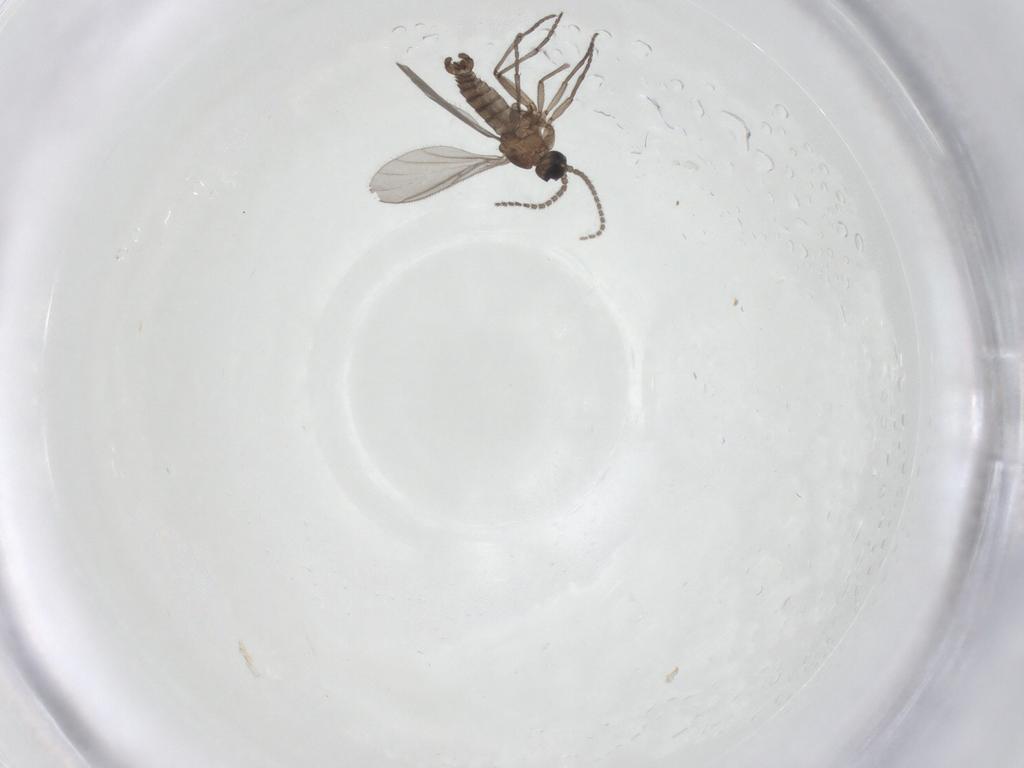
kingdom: Animalia
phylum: Arthropoda
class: Insecta
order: Diptera
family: Sciaridae
